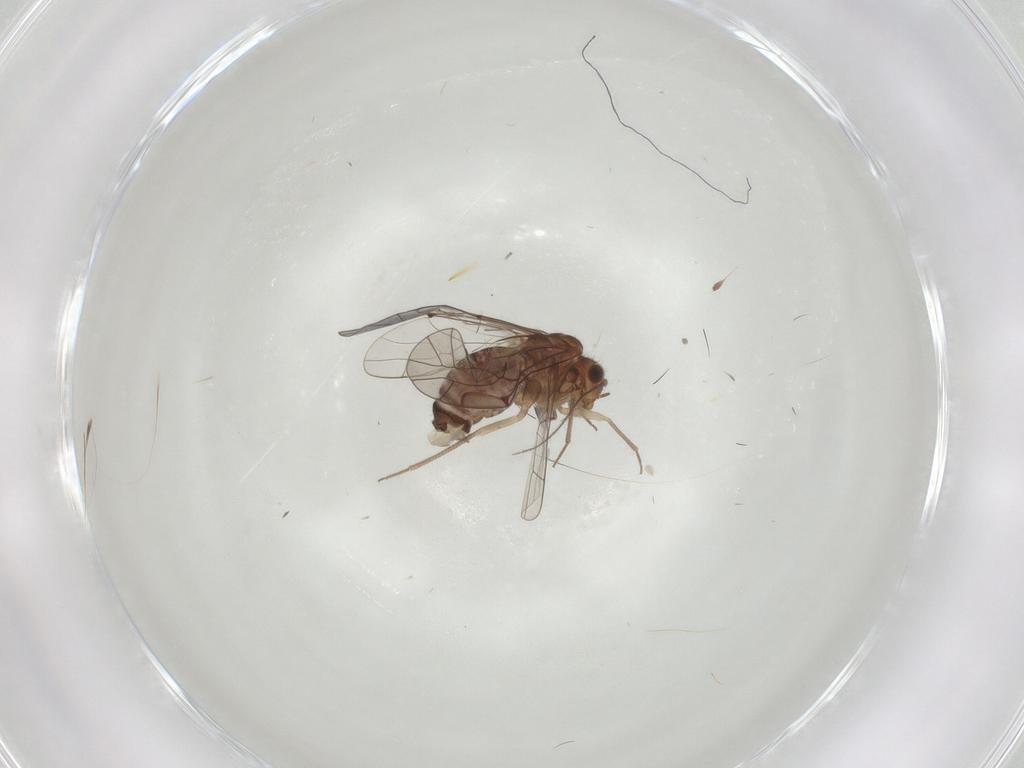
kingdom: Animalia
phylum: Arthropoda
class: Insecta
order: Psocodea
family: Lachesillidae
